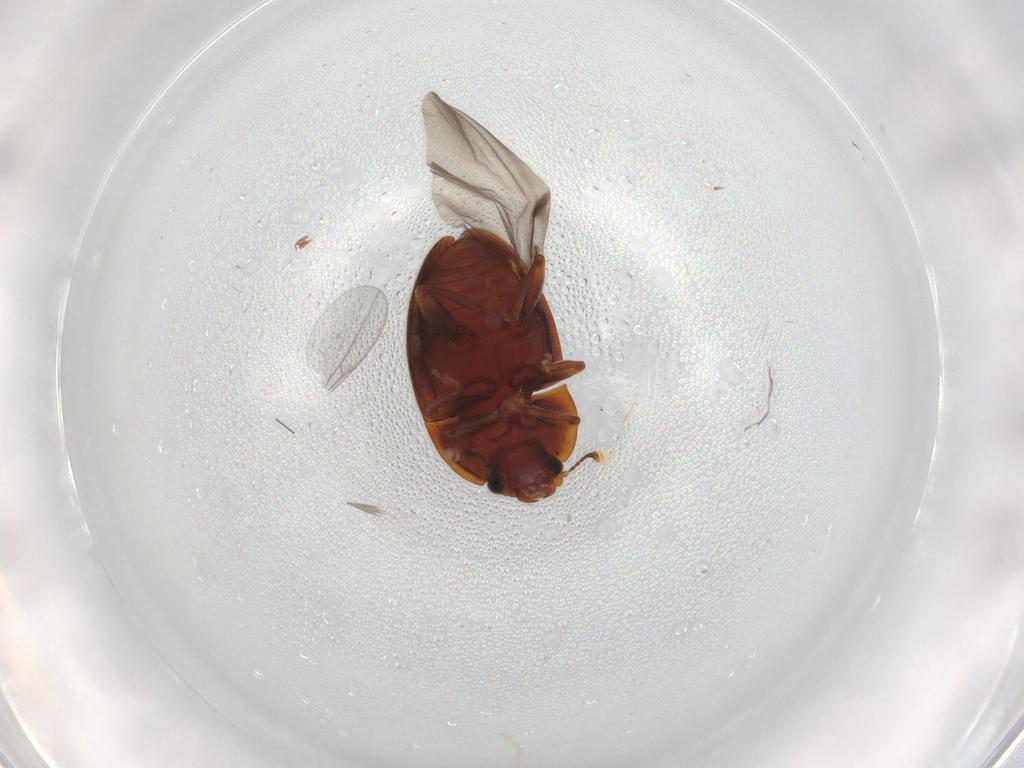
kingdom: Animalia
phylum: Arthropoda
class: Insecta
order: Coleoptera
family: Nitidulidae
